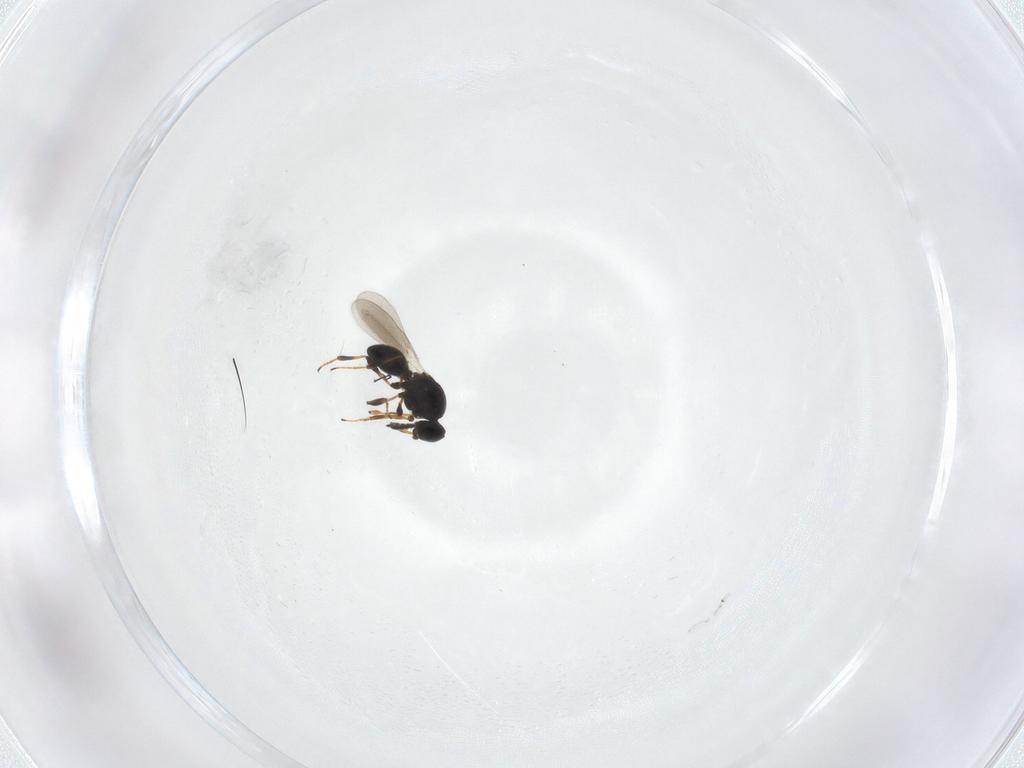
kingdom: Animalia
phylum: Arthropoda
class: Insecta
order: Hymenoptera
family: Platygastridae
